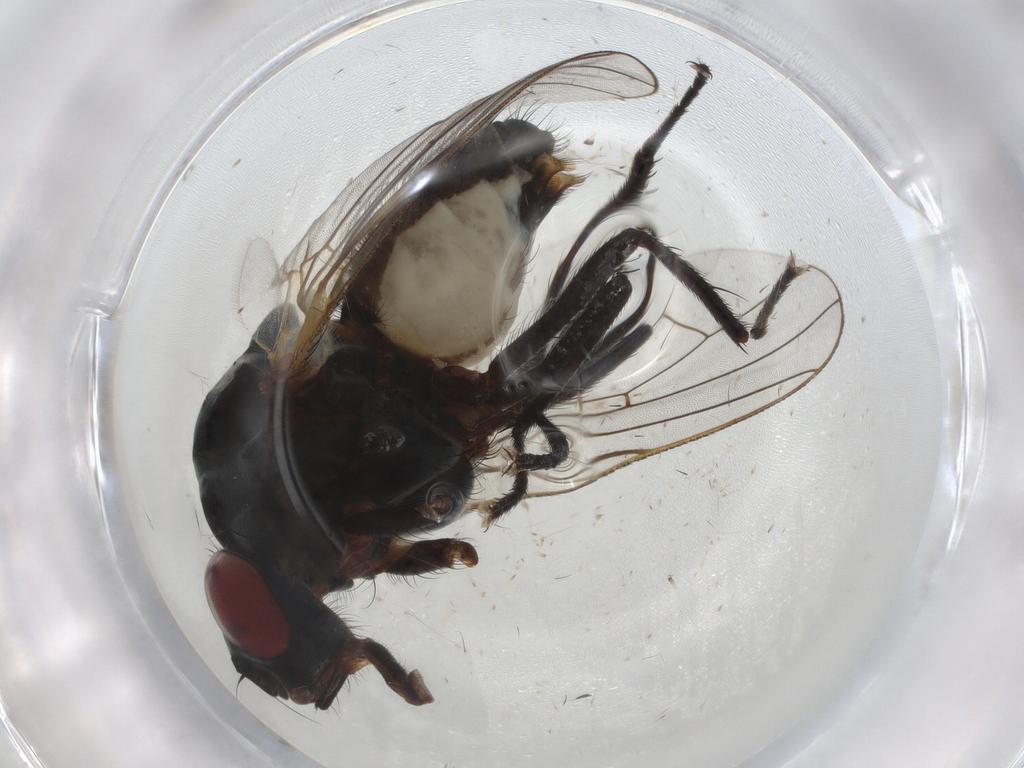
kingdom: Animalia
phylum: Arthropoda
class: Insecta
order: Diptera
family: Anthomyiidae
